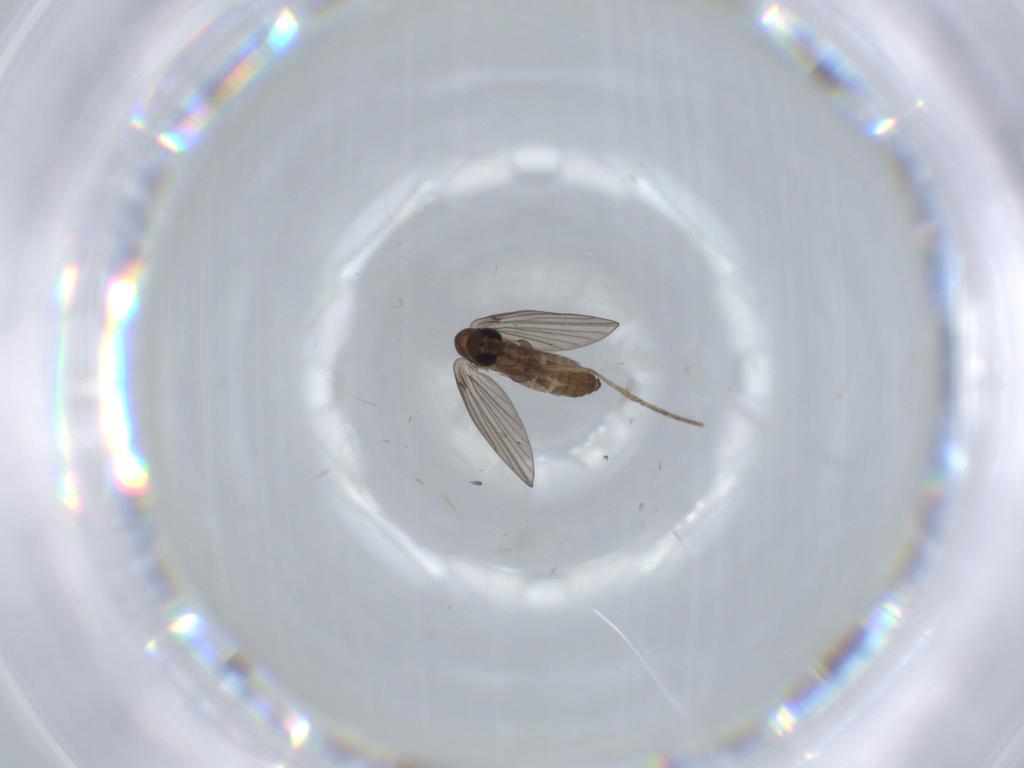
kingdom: Animalia
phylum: Arthropoda
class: Insecta
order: Diptera
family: Psychodidae
